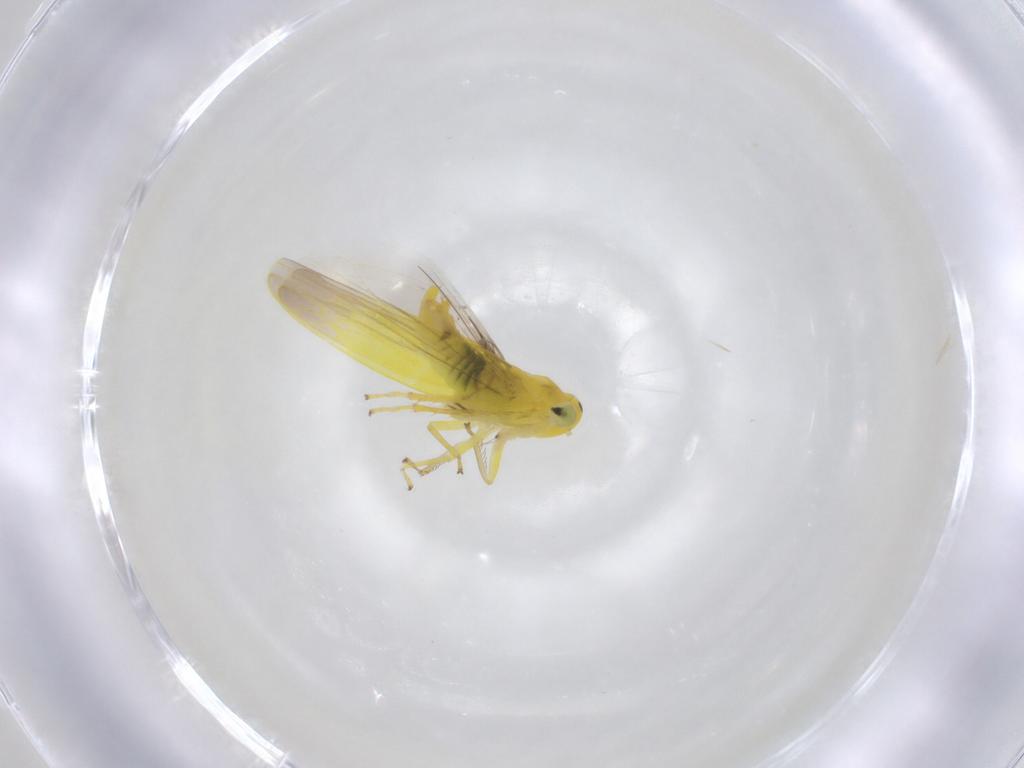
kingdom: Animalia
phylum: Arthropoda
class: Insecta
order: Hemiptera
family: Cicadellidae
